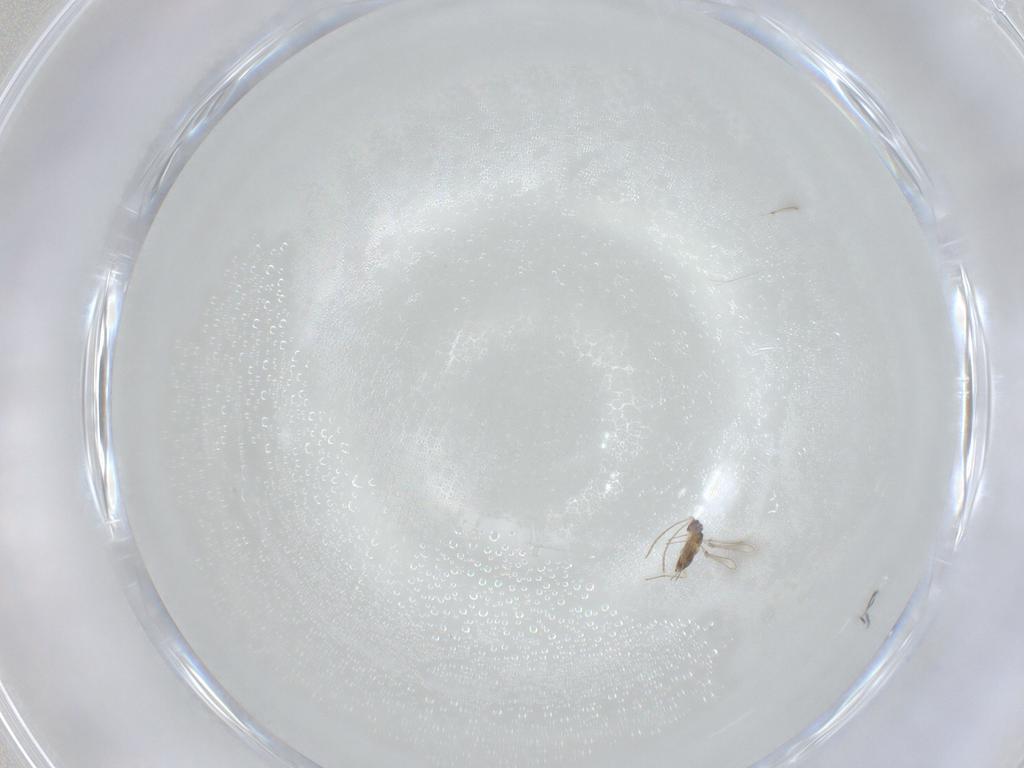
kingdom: Animalia
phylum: Arthropoda
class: Insecta
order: Hymenoptera
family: Mymaridae
